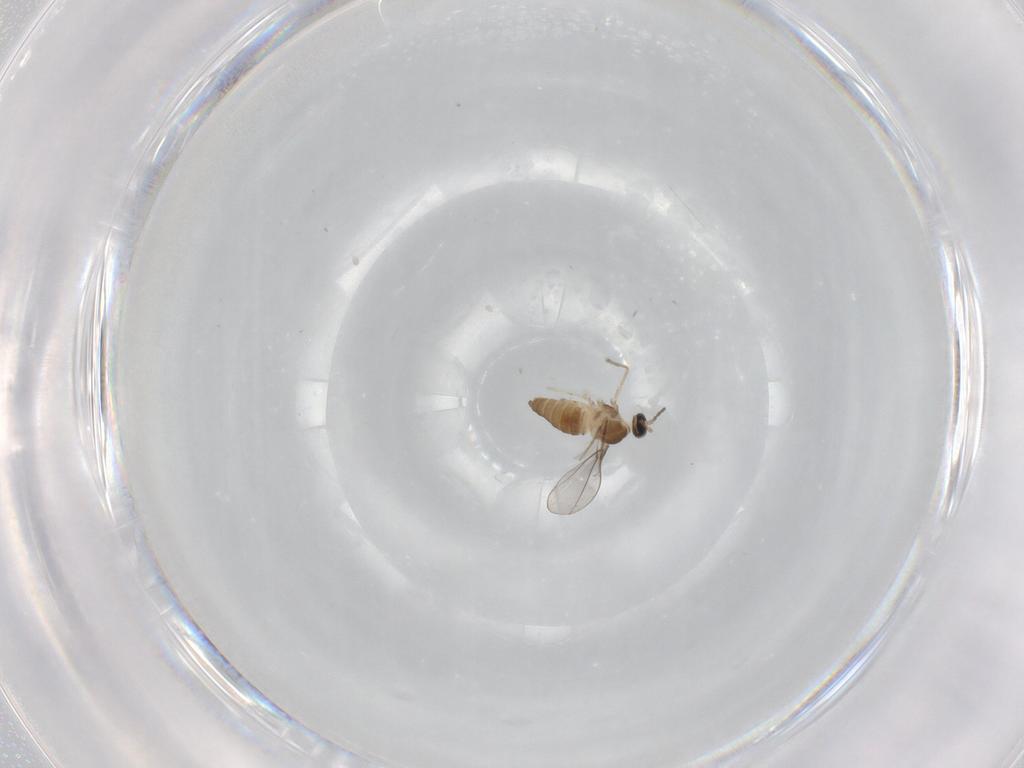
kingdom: Animalia
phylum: Arthropoda
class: Insecta
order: Diptera
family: Cecidomyiidae
